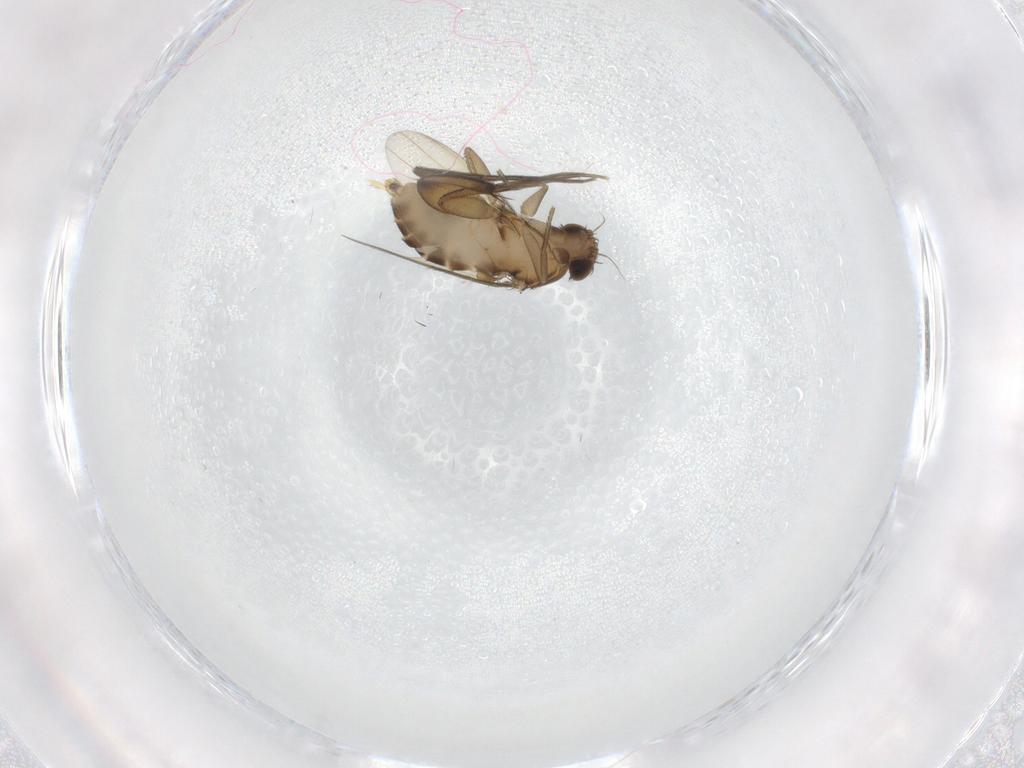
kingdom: Animalia
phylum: Arthropoda
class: Insecta
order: Diptera
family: Phoridae
